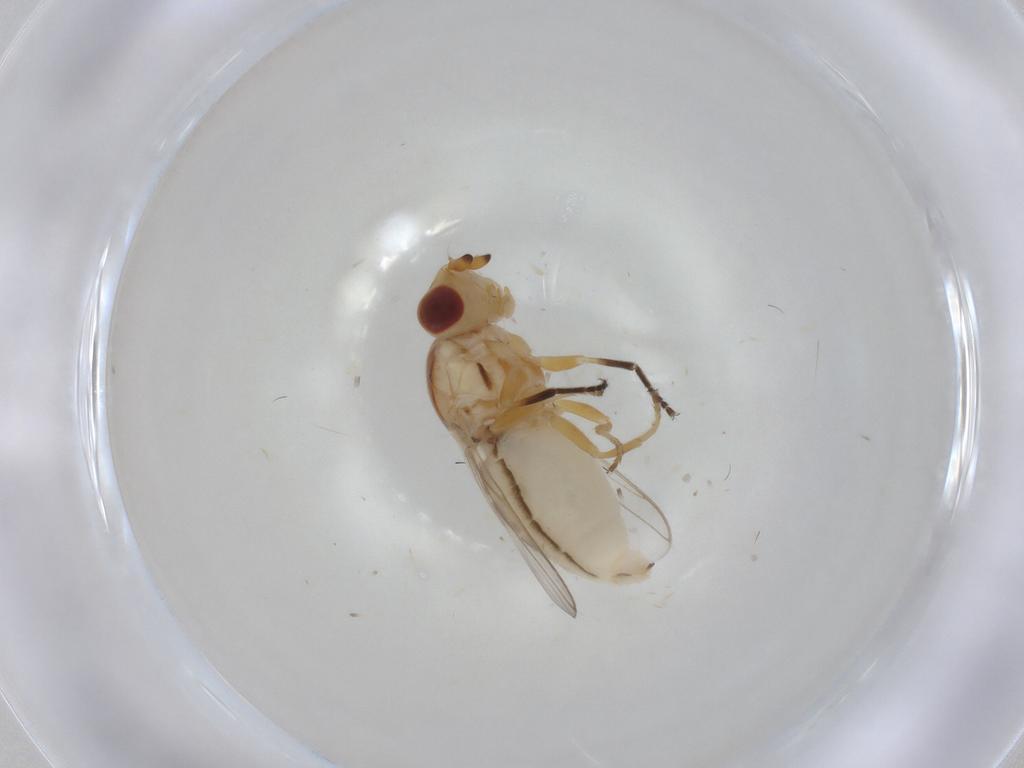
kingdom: Animalia
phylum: Arthropoda
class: Insecta
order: Diptera
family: Chloropidae
